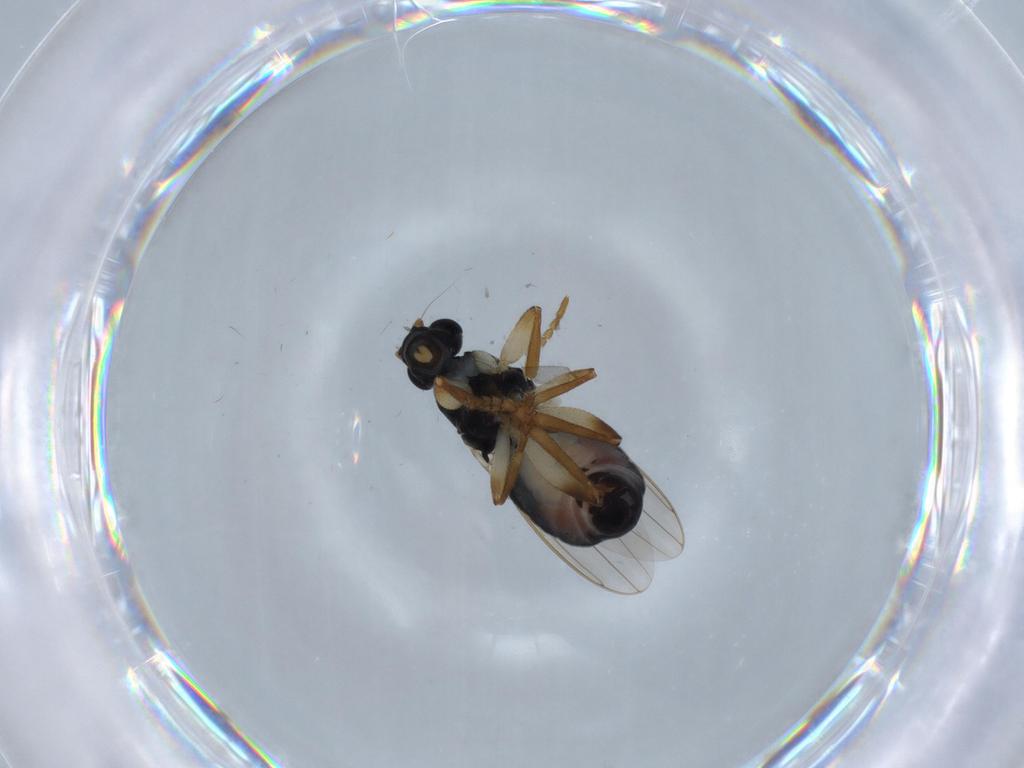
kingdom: Animalia
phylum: Arthropoda
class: Insecta
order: Diptera
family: Sphaeroceridae
